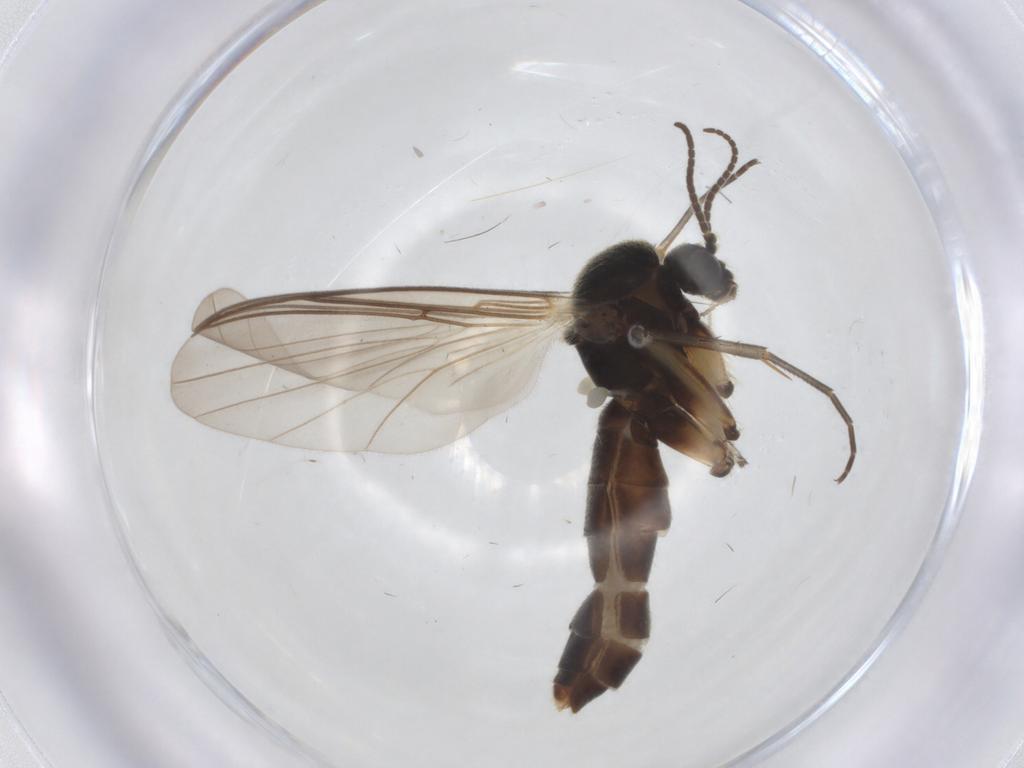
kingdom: Animalia
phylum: Arthropoda
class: Insecta
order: Diptera
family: Mycetophilidae
